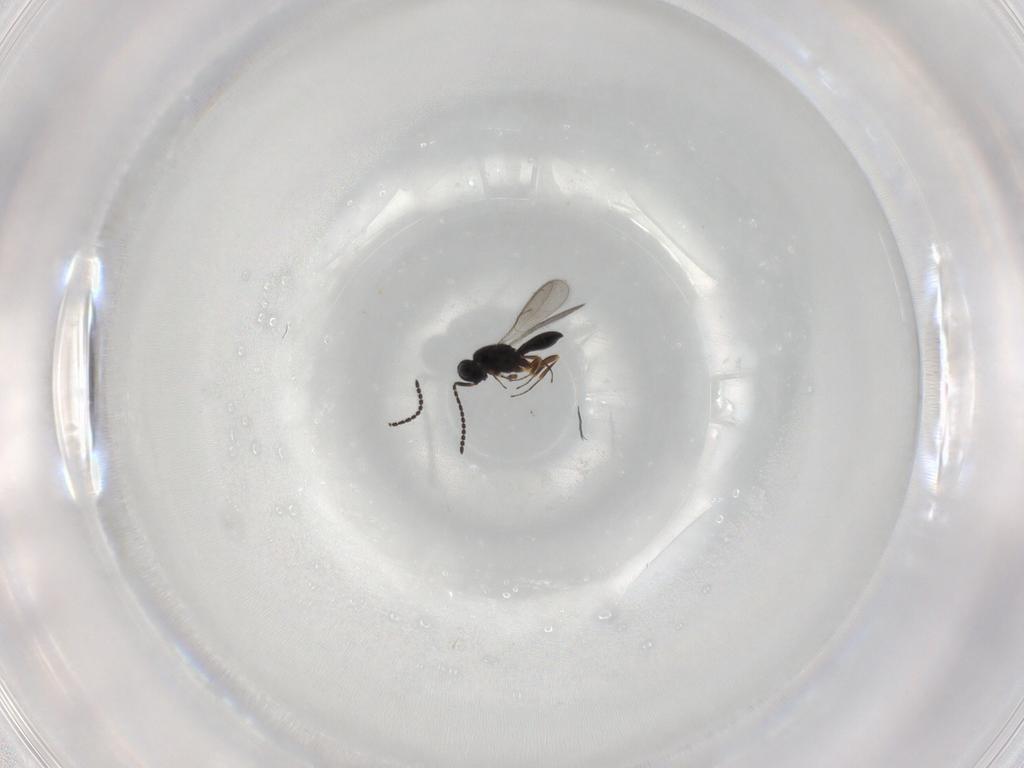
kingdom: Animalia
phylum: Arthropoda
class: Insecta
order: Hymenoptera
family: Scelionidae
